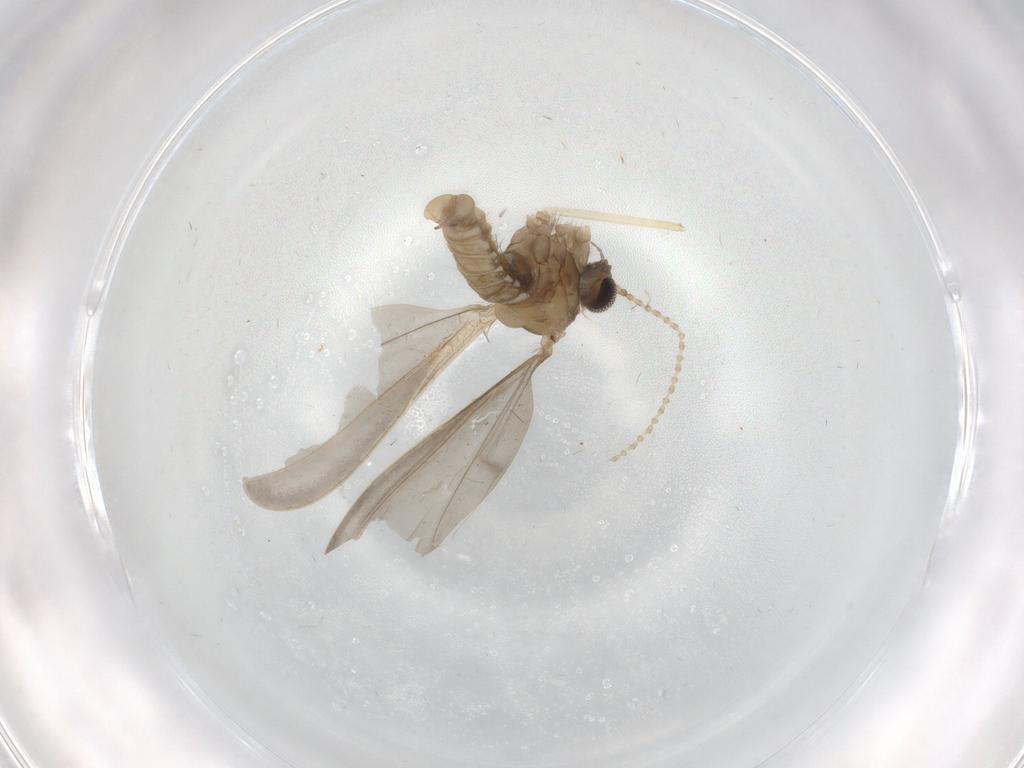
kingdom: Animalia
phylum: Arthropoda
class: Insecta
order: Diptera
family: Cecidomyiidae
